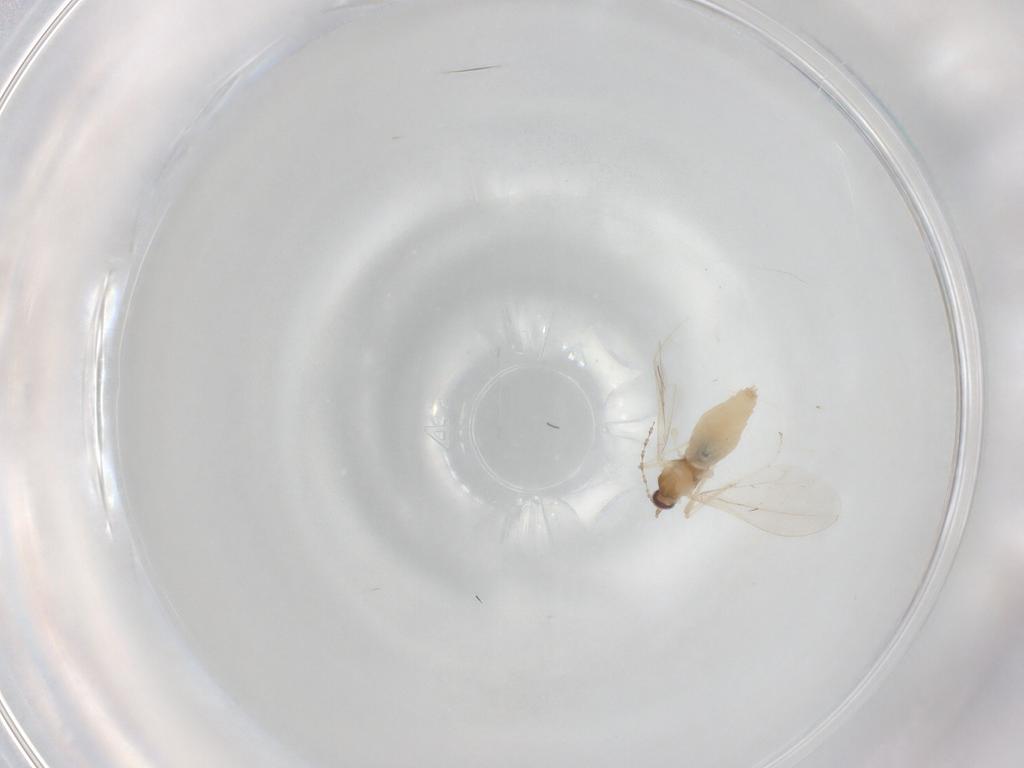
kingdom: Animalia
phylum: Arthropoda
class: Insecta
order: Diptera
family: Cecidomyiidae
